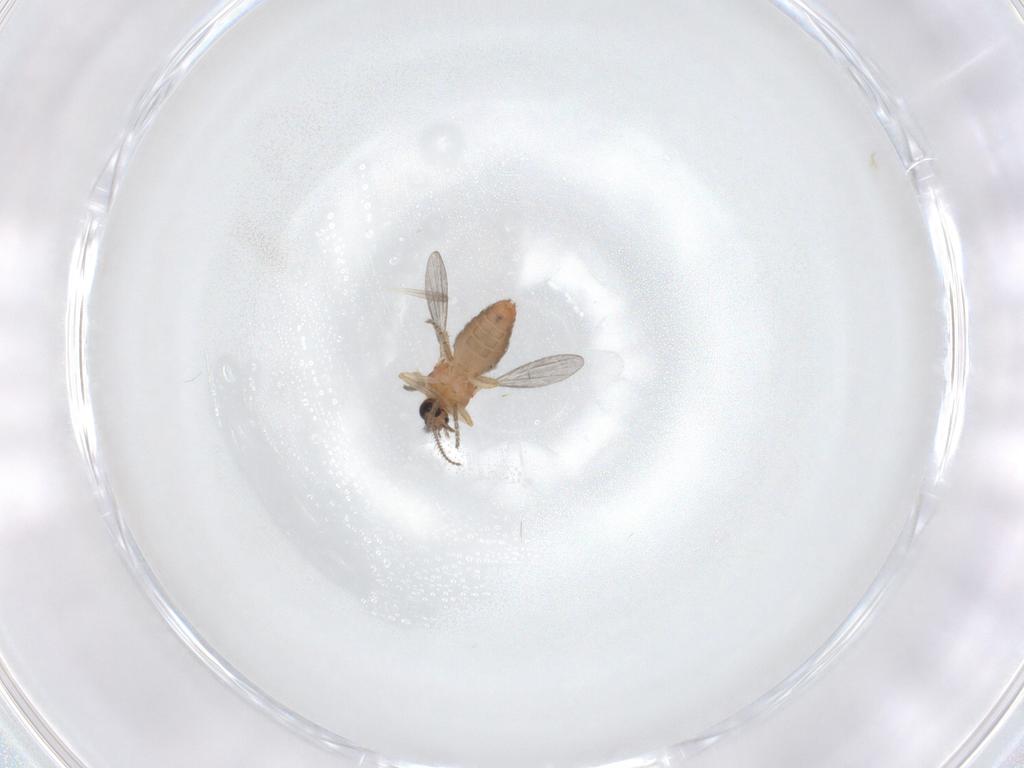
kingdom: Animalia
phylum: Arthropoda
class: Insecta
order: Diptera
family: Ceratopogonidae
